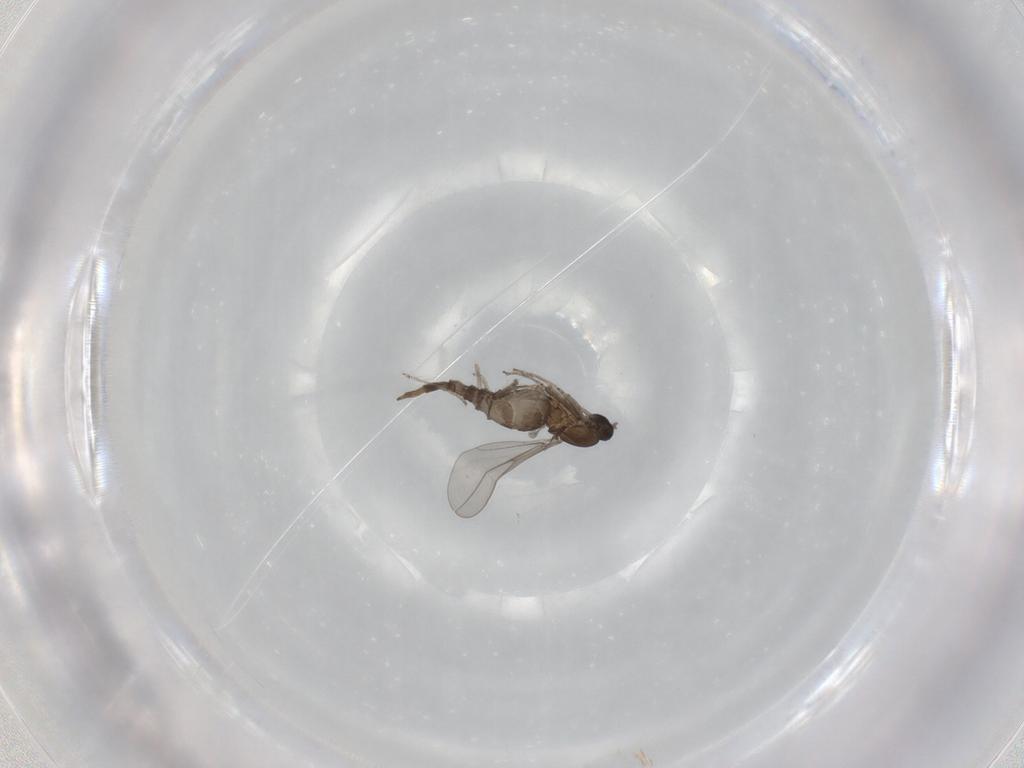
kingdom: Animalia
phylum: Arthropoda
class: Insecta
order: Diptera
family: Cecidomyiidae
